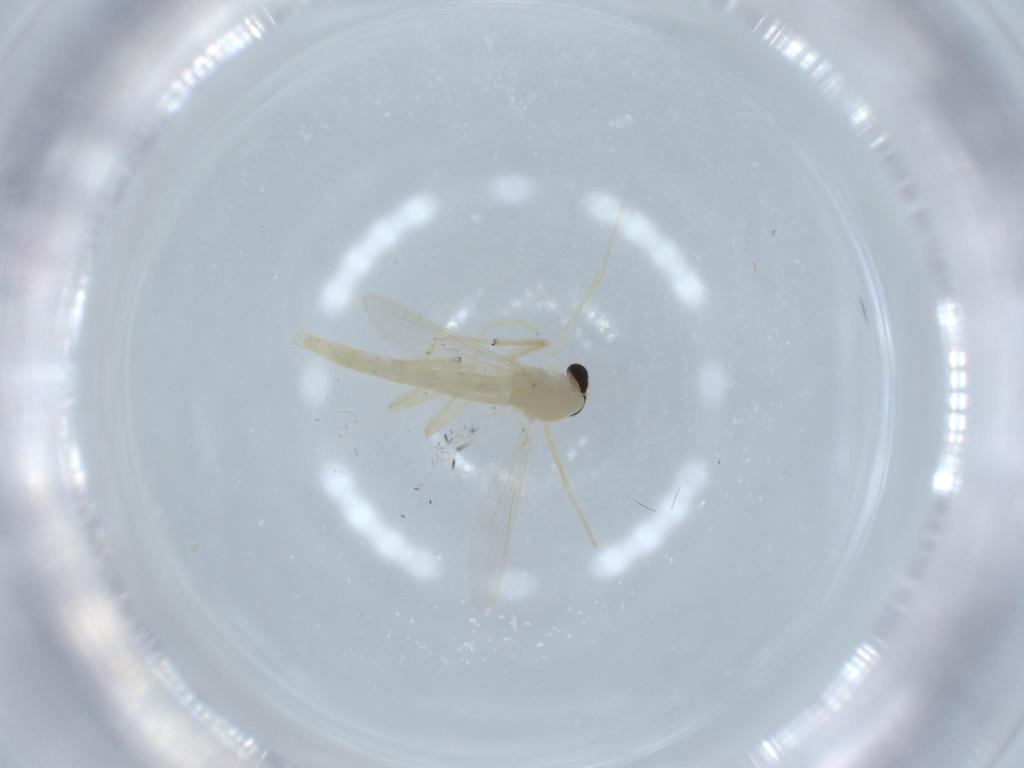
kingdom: Animalia
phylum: Arthropoda
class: Insecta
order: Diptera
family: Chironomidae
